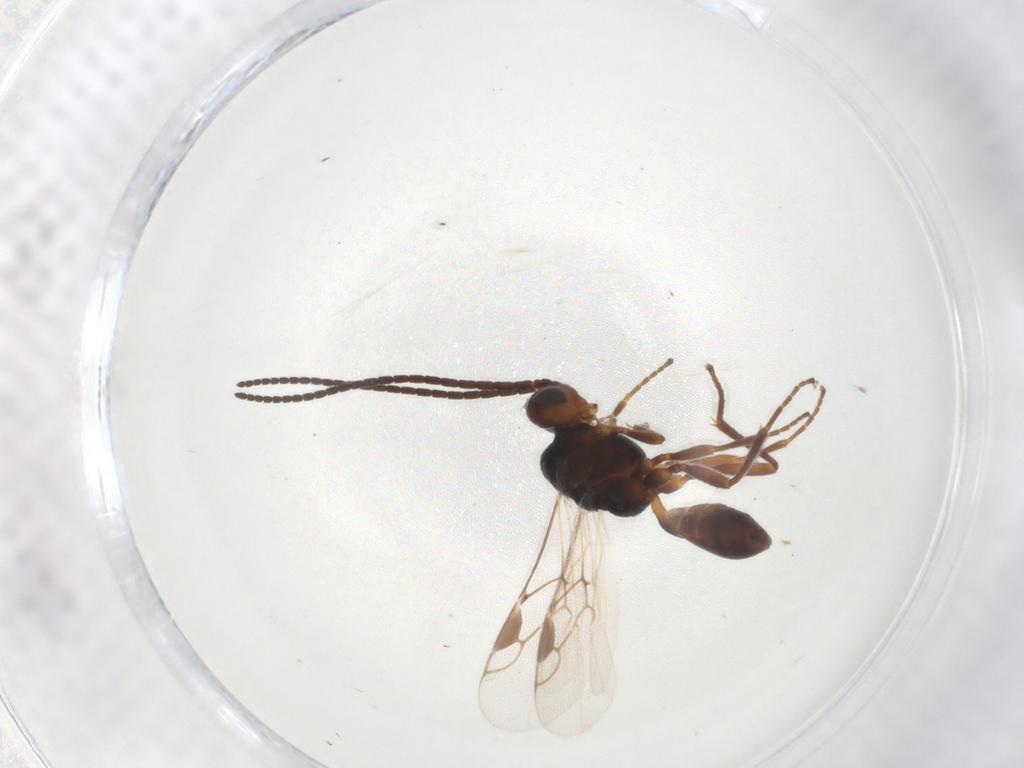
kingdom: Animalia
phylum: Arthropoda
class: Insecta
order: Hymenoptera
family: Braconidae
